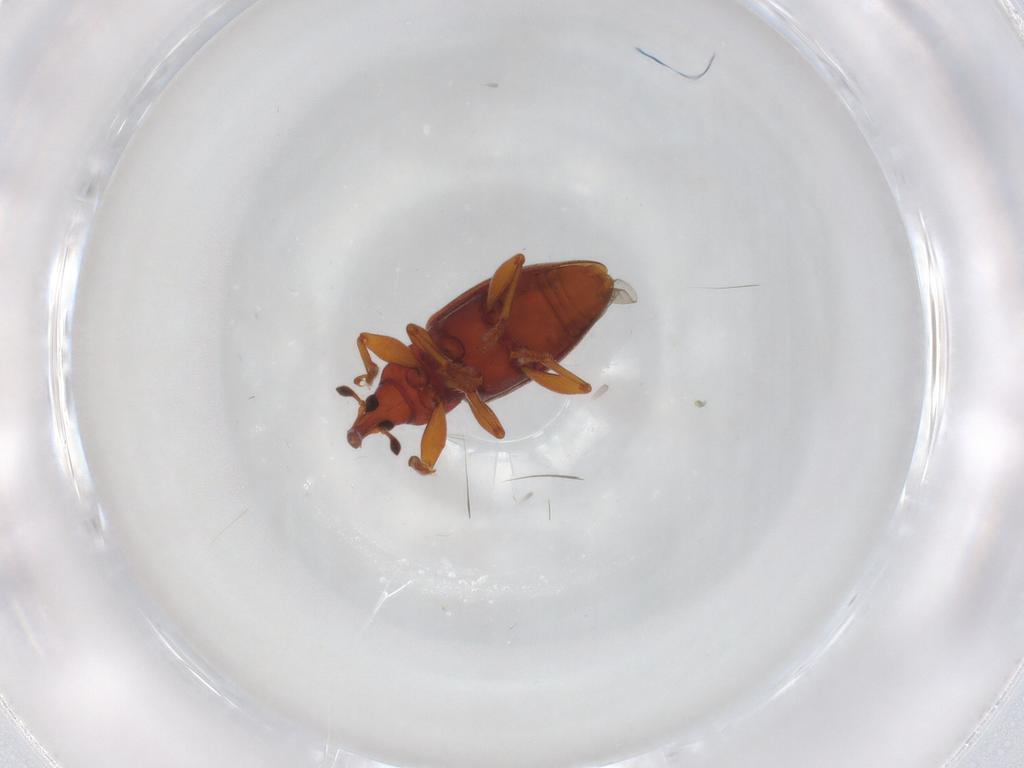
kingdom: Animalia
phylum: Arthropoda
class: Insecta
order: Coleoptera
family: Curculionidae
